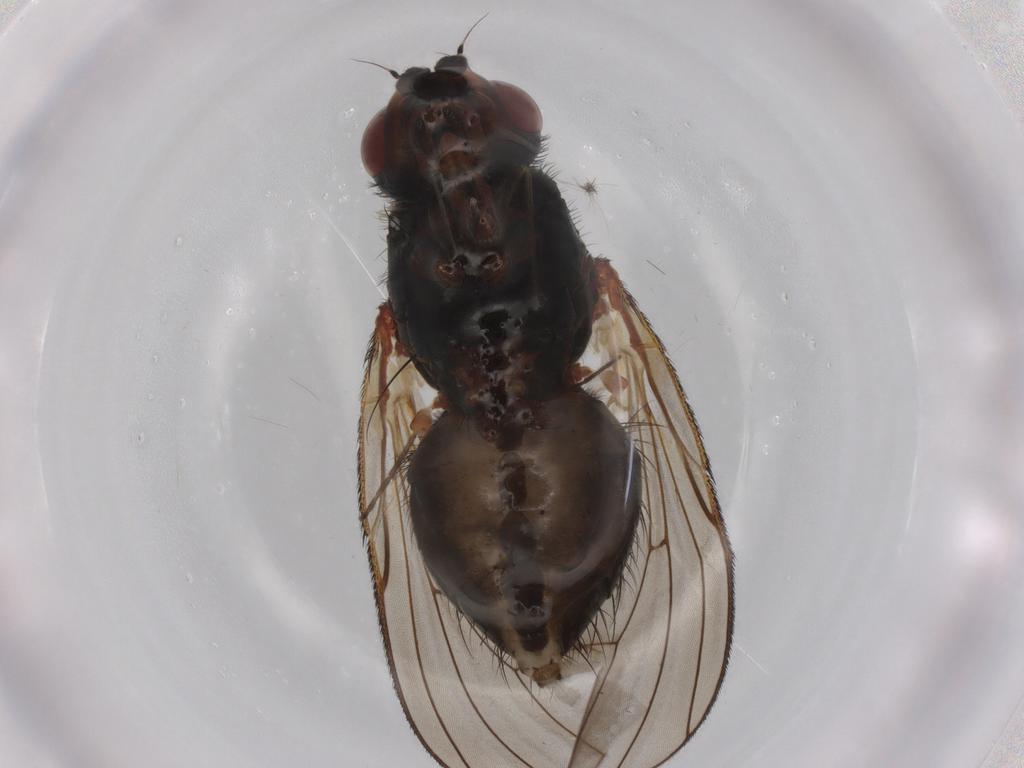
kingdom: Animalia
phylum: Arthropoda
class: Insecta
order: Diptera
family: Anthomyiidae
